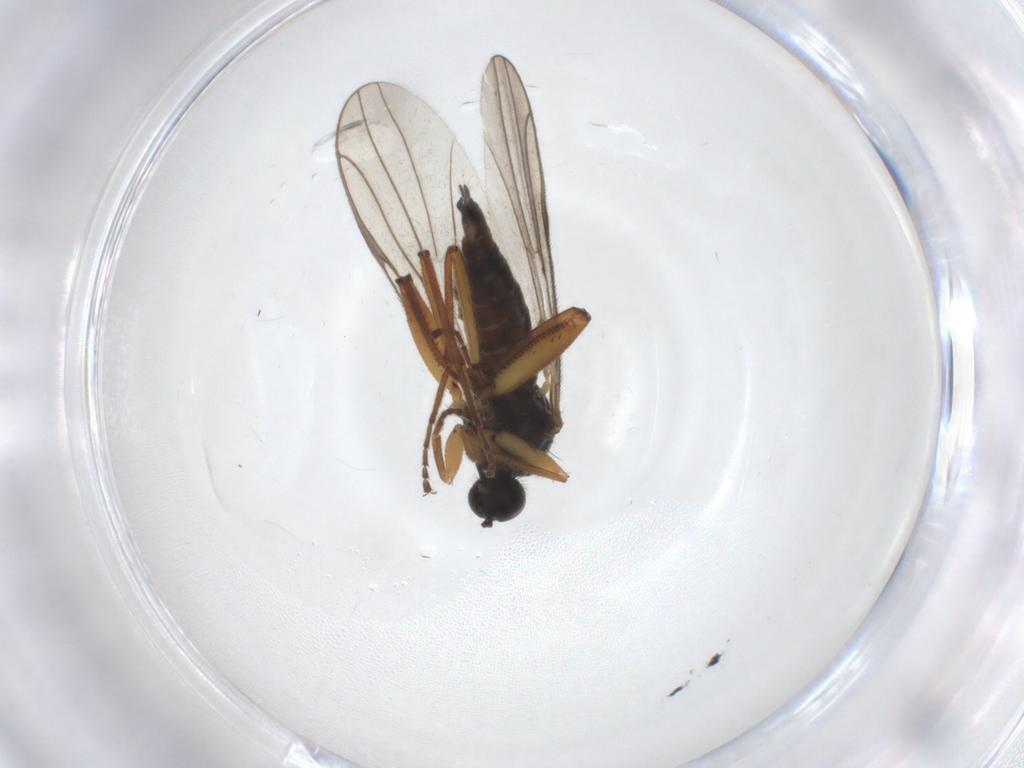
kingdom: Animalia
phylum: Arthropoda
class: Insecta
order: Diptera
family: Hybotidae
